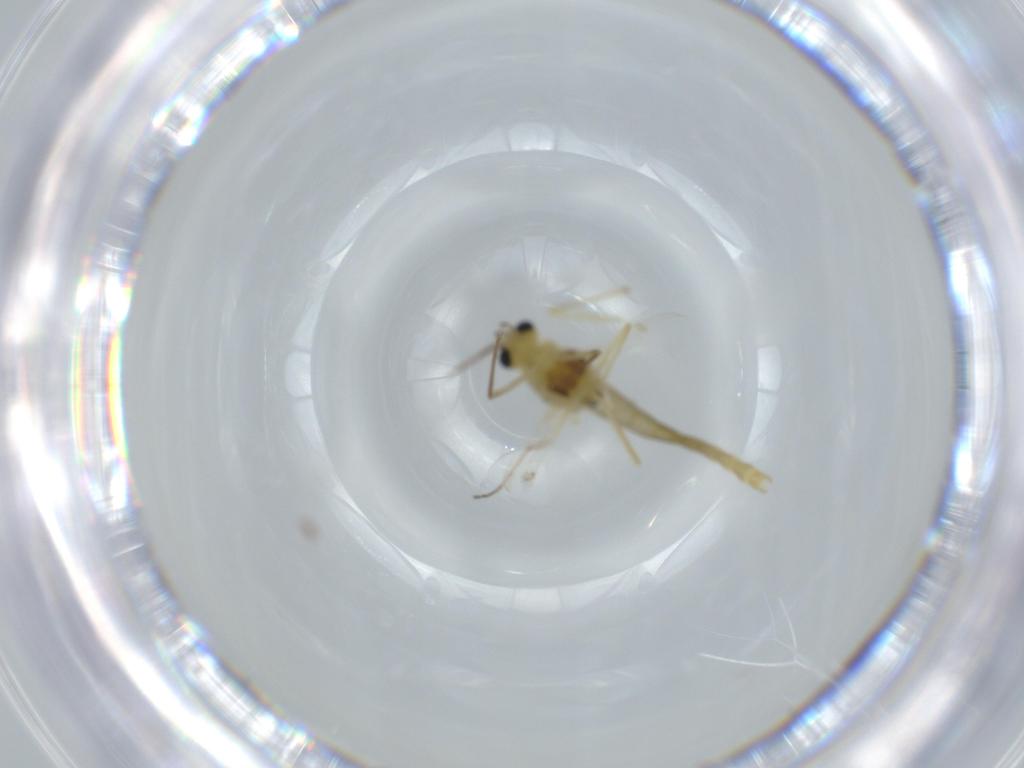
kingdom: Animalia
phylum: Arthropoda
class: Insecta
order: Diptera
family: Chironomidae
